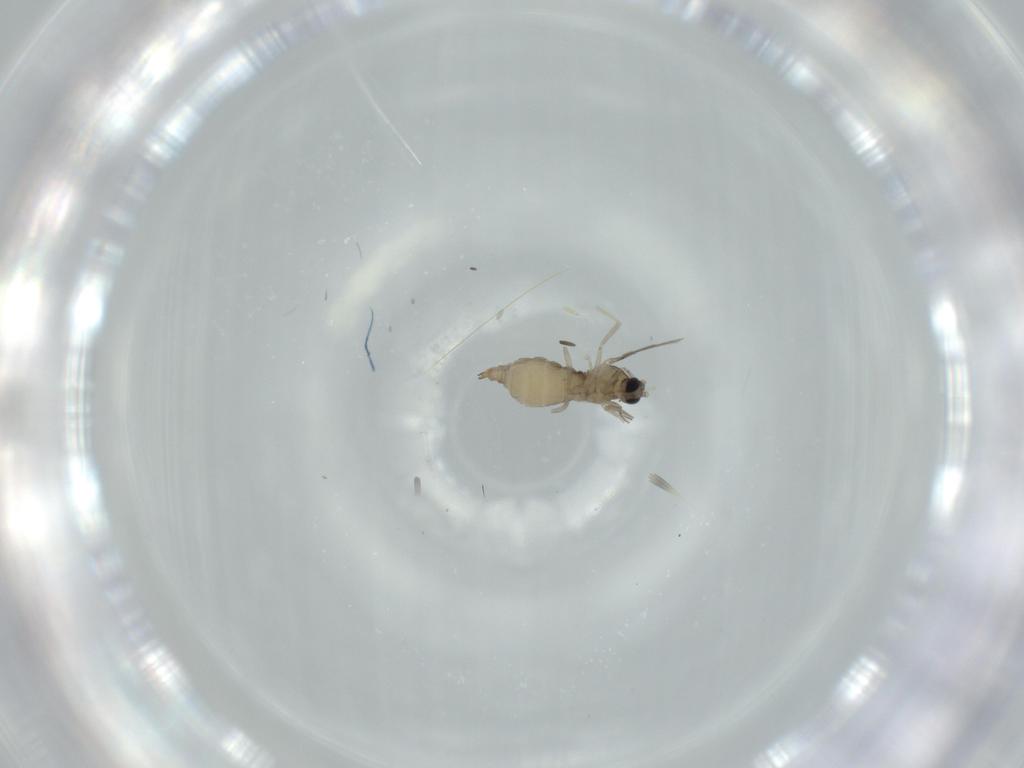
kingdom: Animalia
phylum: Arthropoda
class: Insecta
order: Diptera
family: Cecidomyiidae
